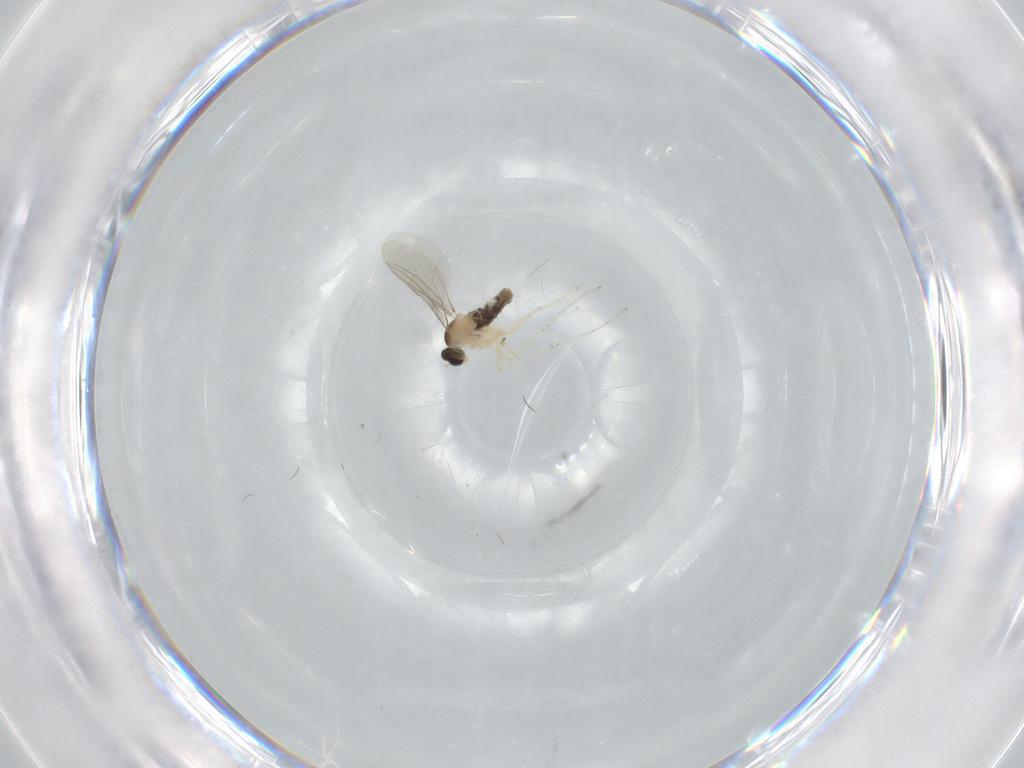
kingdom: Animalia
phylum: Arthropoda
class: Insecta
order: Diptera
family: Cecidomyiidae
